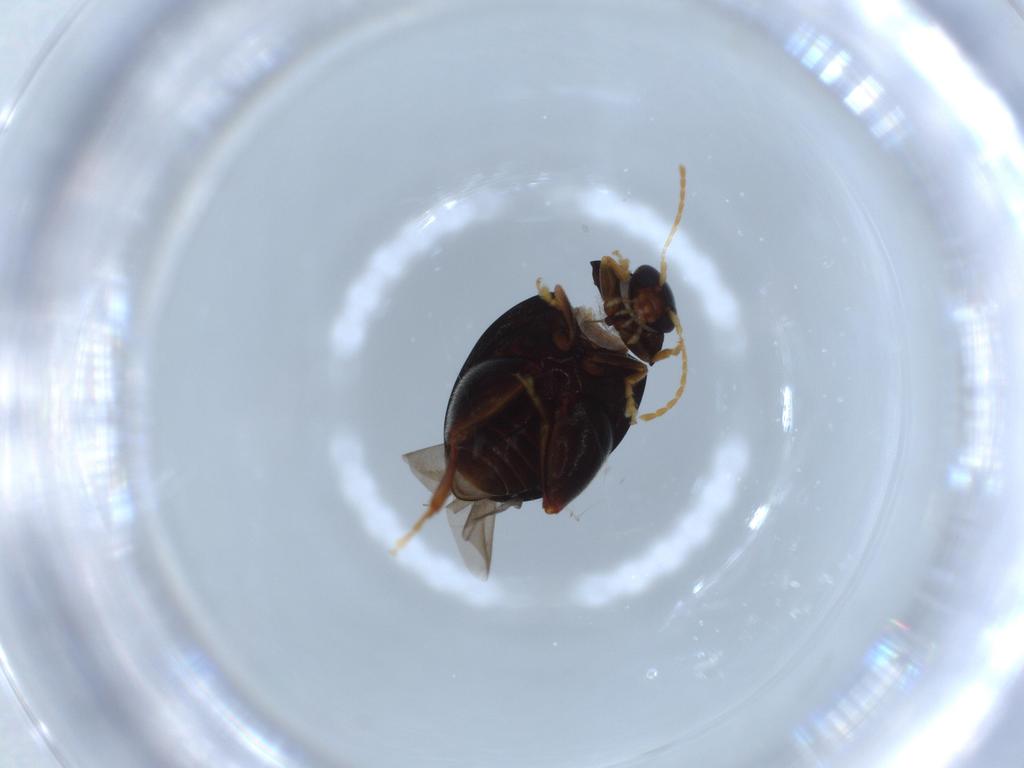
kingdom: Animalia
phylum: Arthropoda
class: Insecta
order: Coleoptera
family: Chrysomelidae
